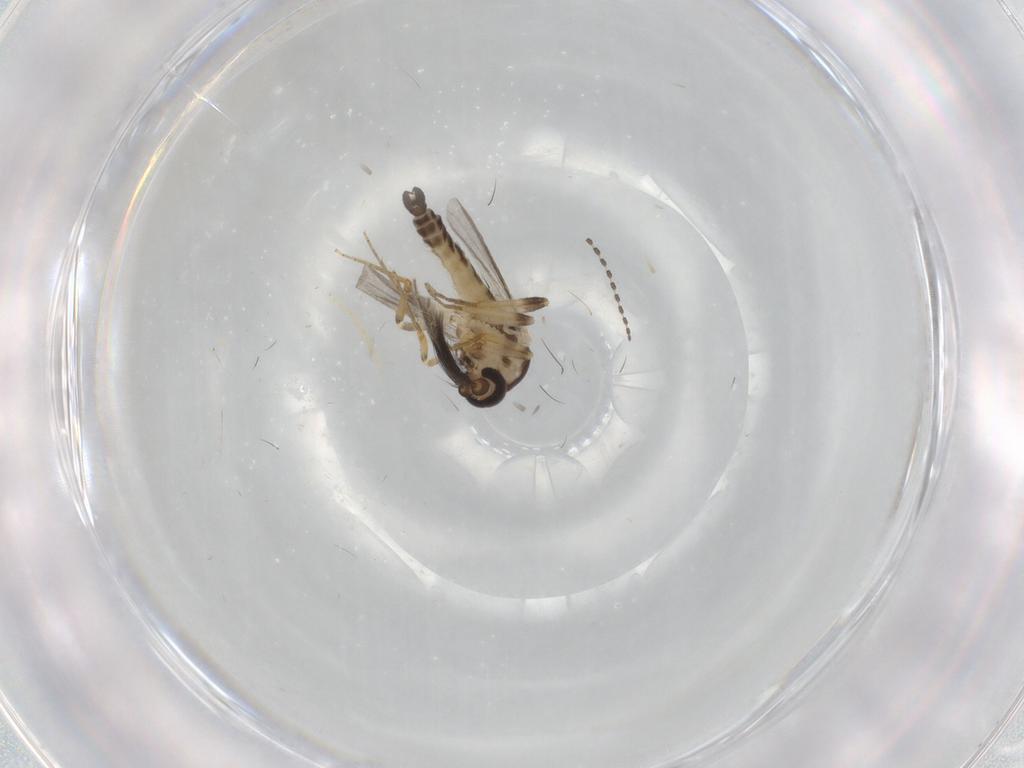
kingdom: Animalia
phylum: Arthropoda
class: Insecta
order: Diptera
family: Ceratopogonidae
